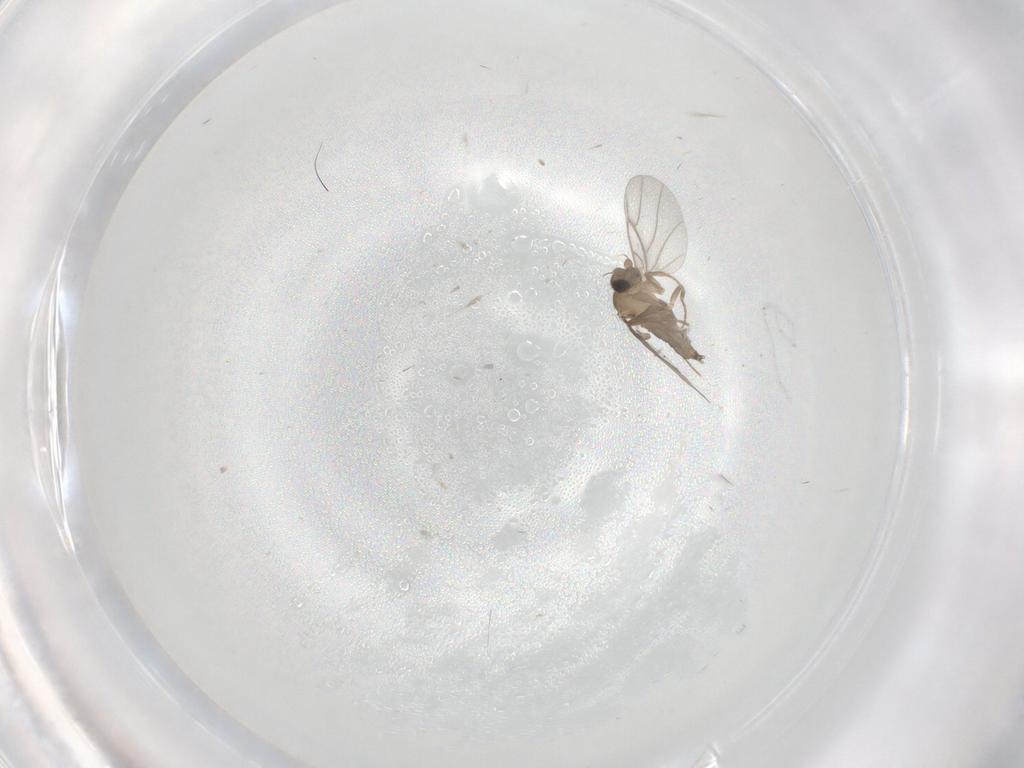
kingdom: Animalia
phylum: Arthropoda
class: Insecta
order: Diptera
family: Cecidomyiidae
